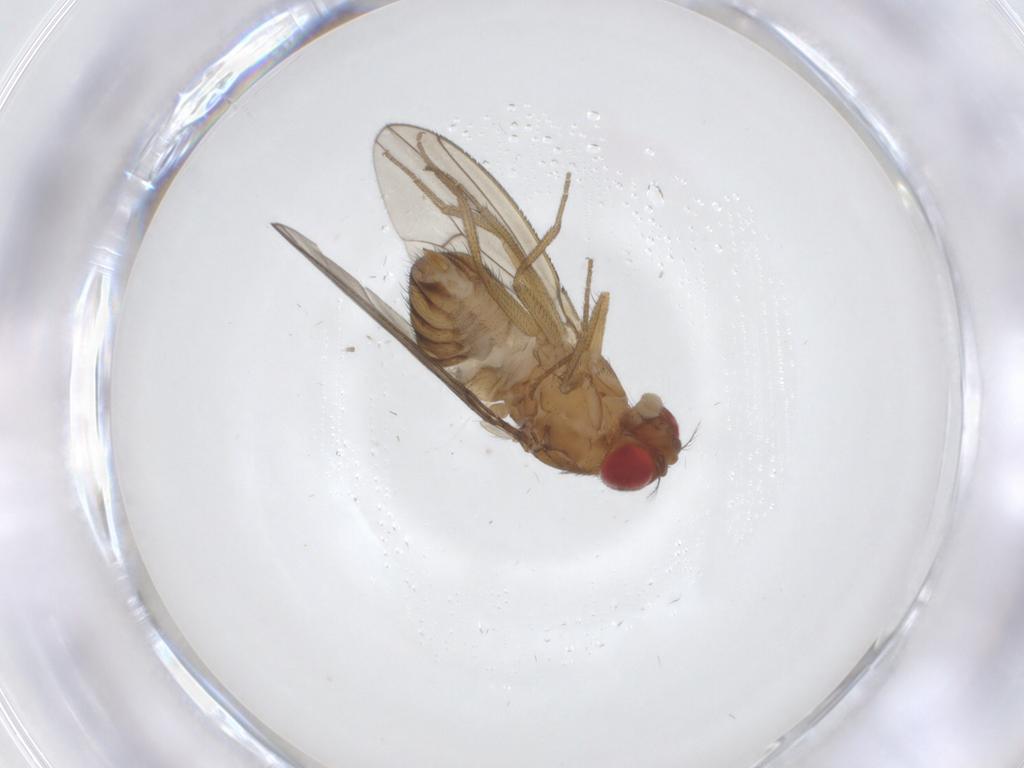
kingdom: Animalia
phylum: Arthropoda
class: Insecta
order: Diptera
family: Drosophilidae
